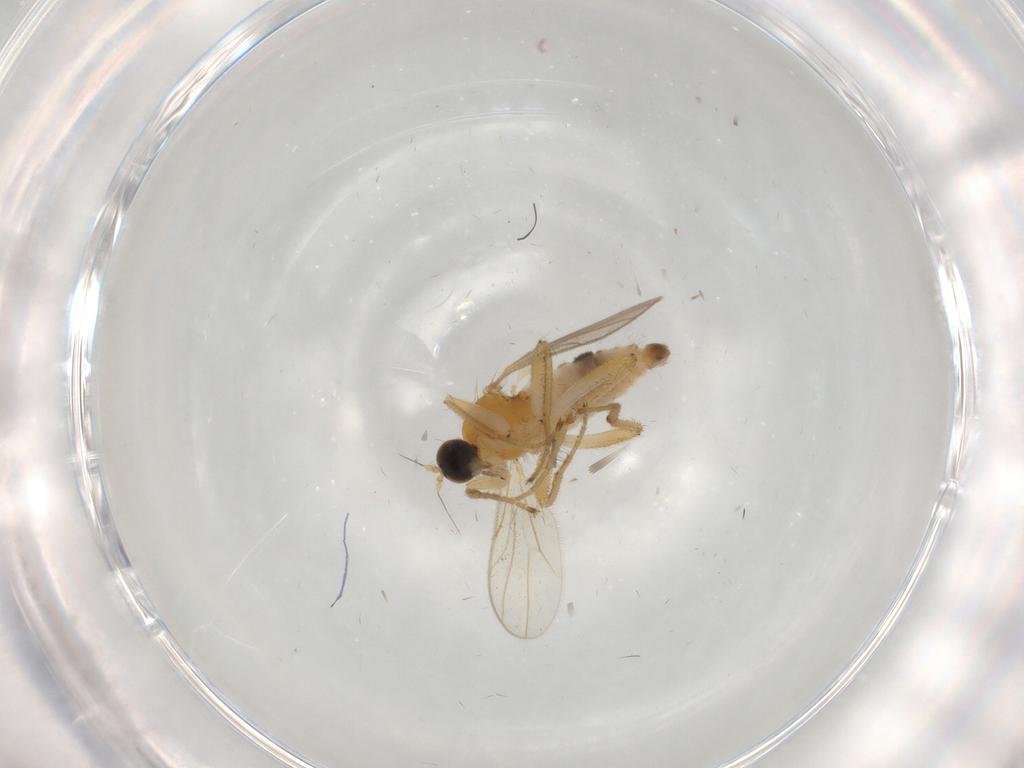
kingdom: Animalia
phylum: Arthropoda
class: Insecta
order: Diptera
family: Hybotidae
